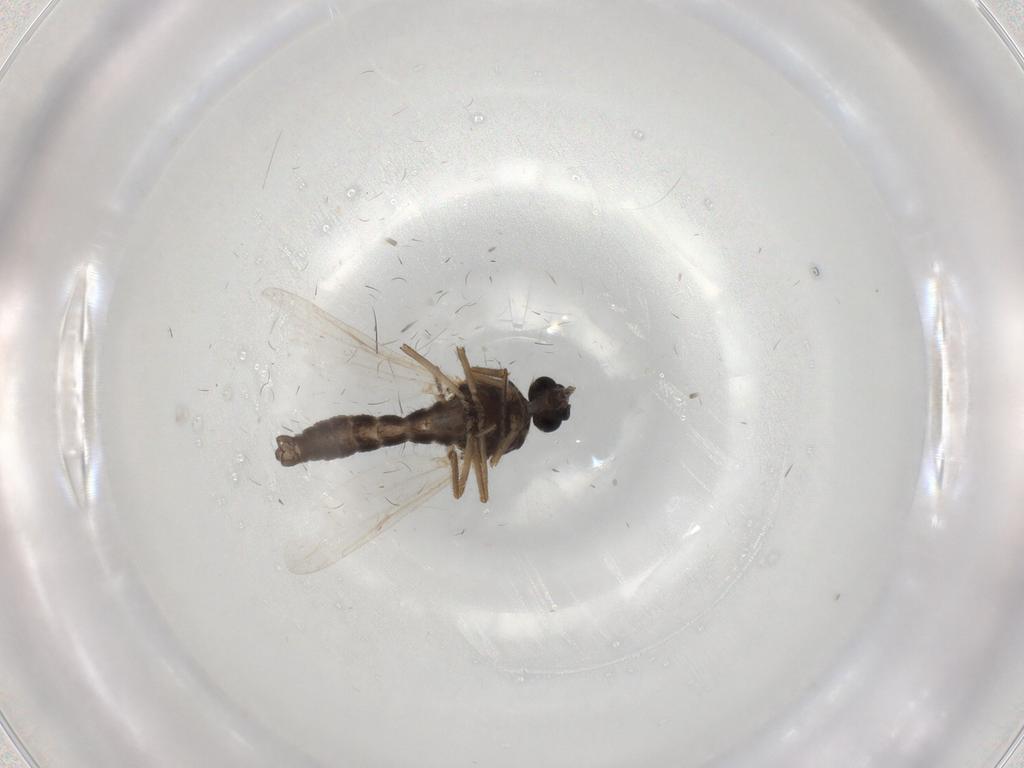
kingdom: Animalia
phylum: Arthropoda
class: Insecta
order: Diptera
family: Ceratopogonidae
